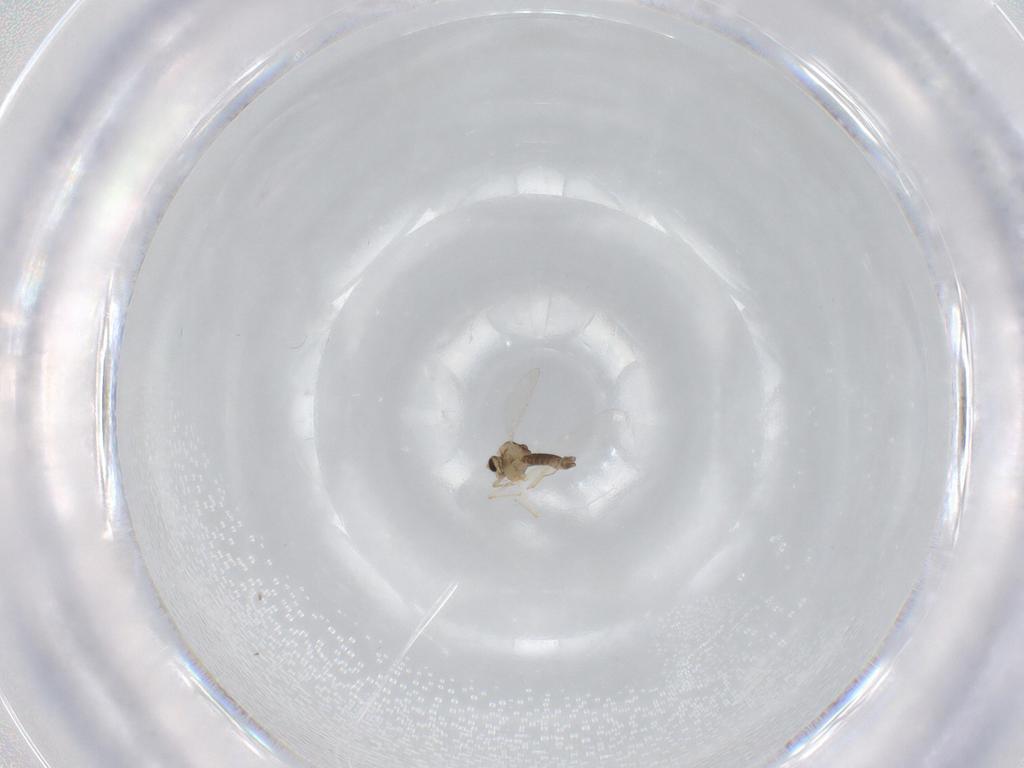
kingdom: Animalia
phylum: Arthropoda
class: Insecta
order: Diptera
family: Chironomidae
